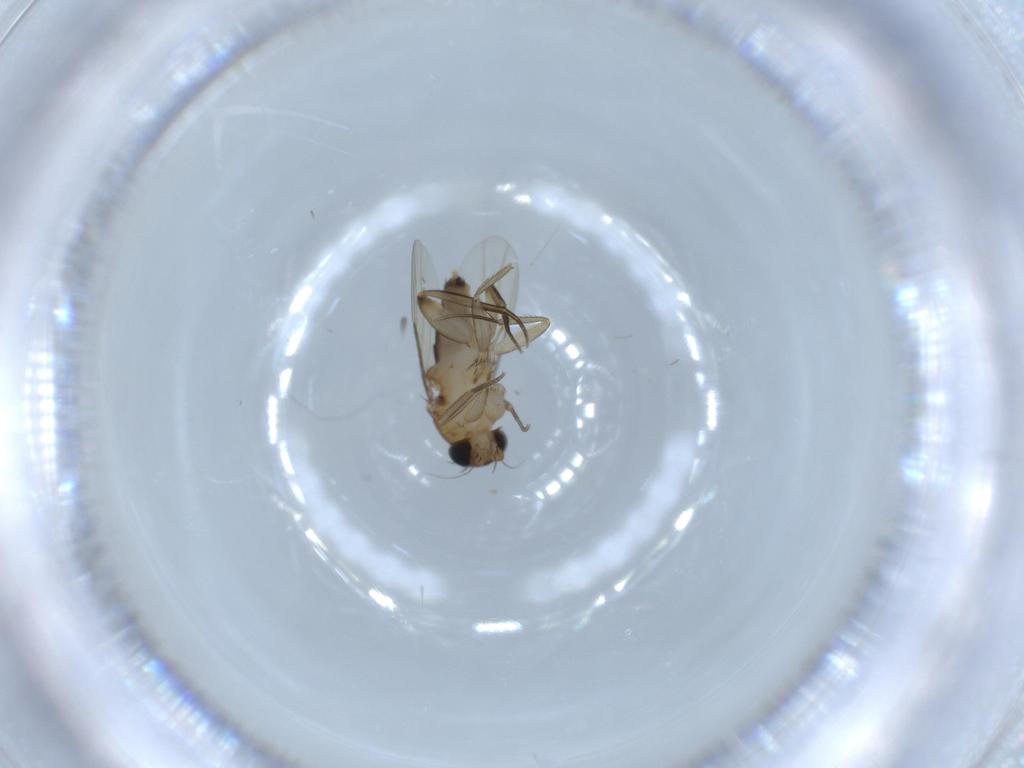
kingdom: Animalia
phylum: Arthropoda
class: Insecta
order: Diptera
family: Phoridae
